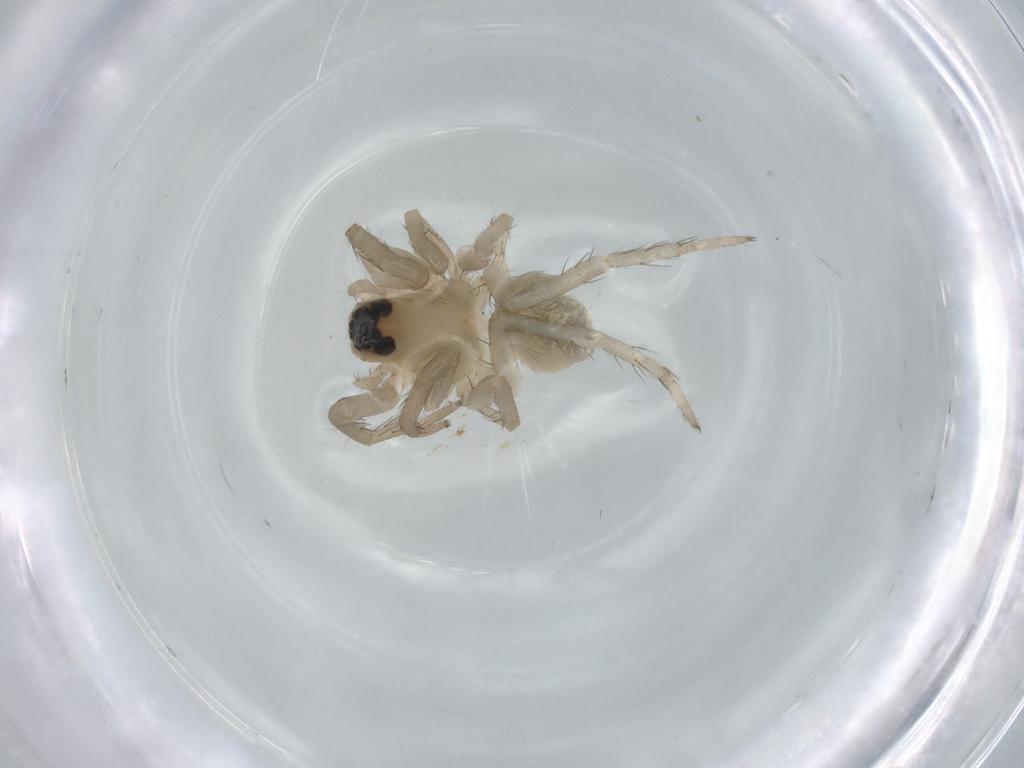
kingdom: Animalia
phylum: Arthropoda
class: Arachnida
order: Araneae
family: Lycosidae
